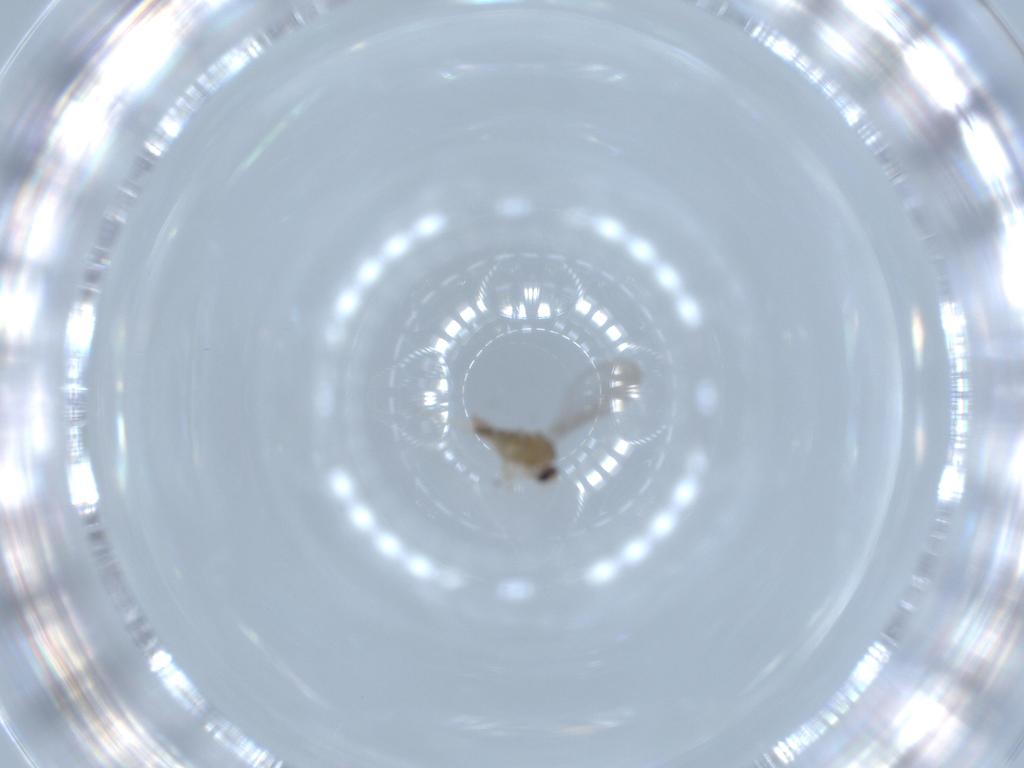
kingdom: Animalia
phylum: Arthropoda
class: Insecta
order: Diptera
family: Cecidomyiidae
